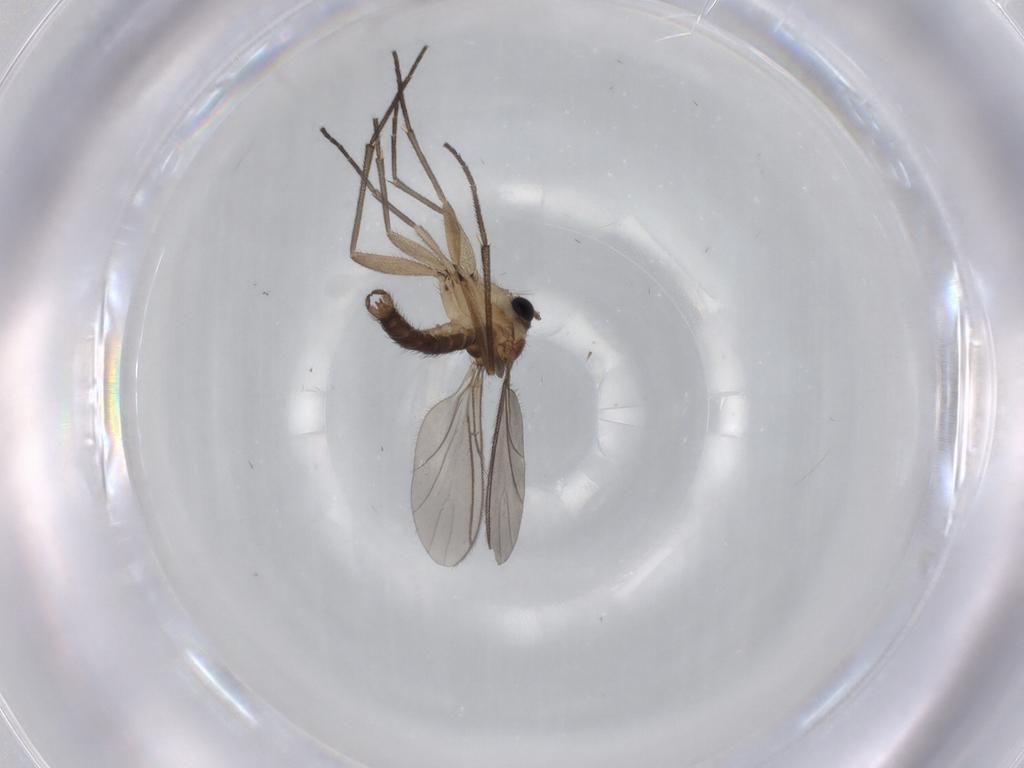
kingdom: Animalia
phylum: Arthropoda
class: Insecta
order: Diptera
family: Sciaridae
